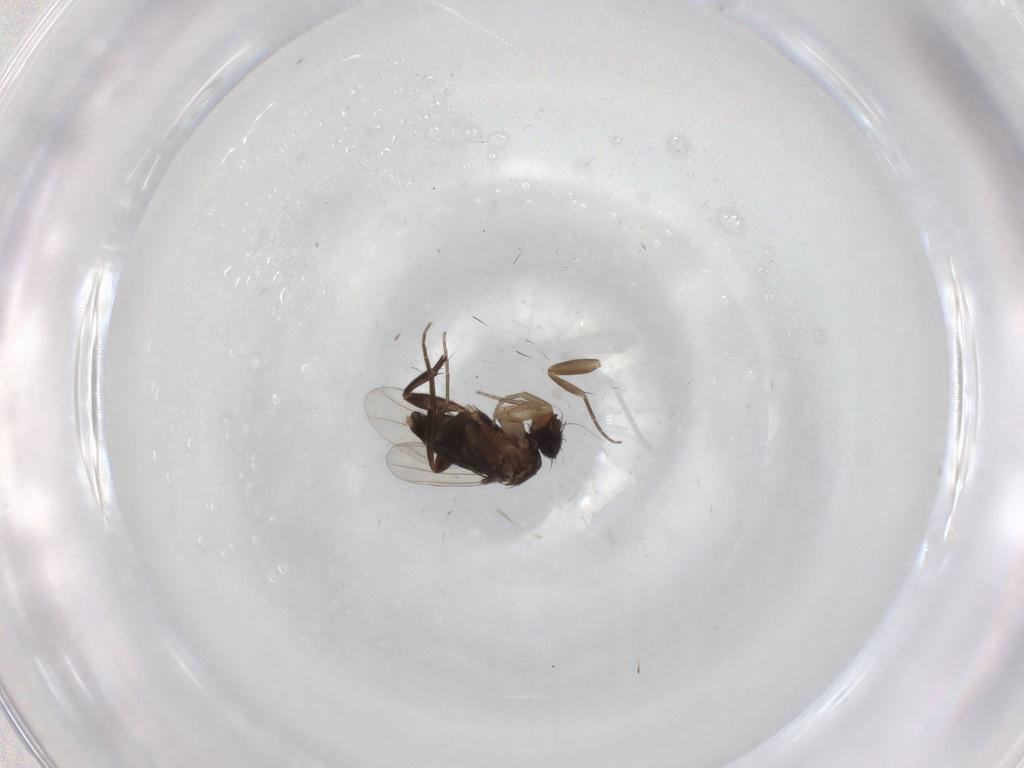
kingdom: Animalia
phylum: Arthropoda
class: Insecta
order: Diptera
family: Phoridae
